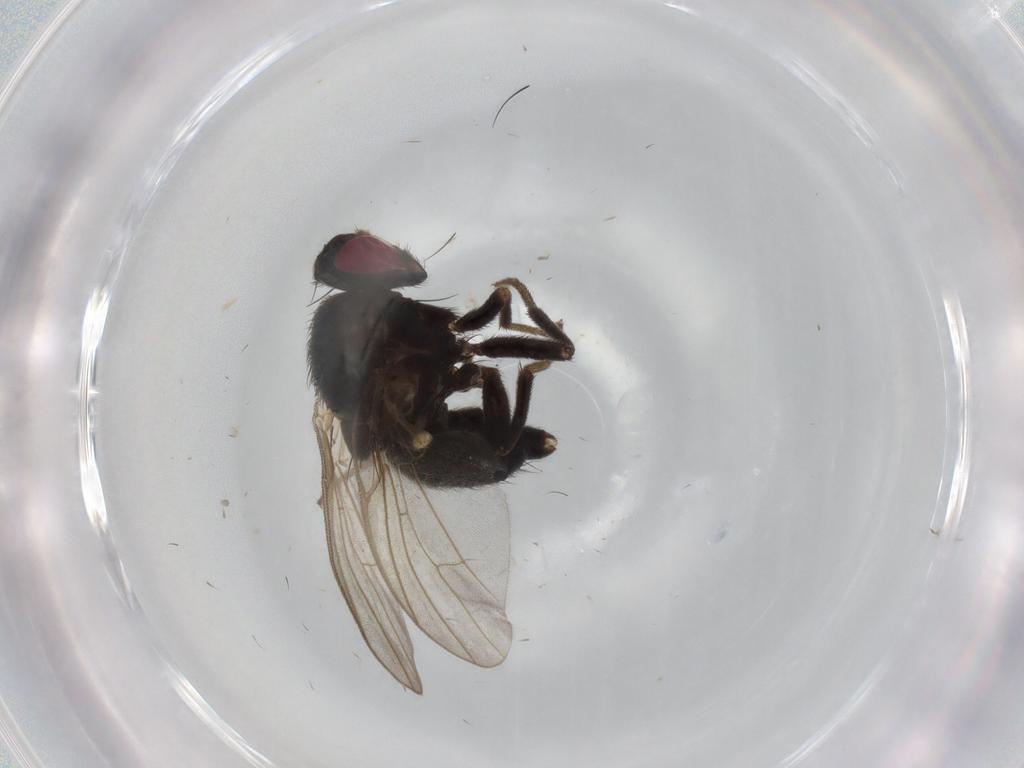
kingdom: Animalia
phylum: Arthropoda
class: Insecta
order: Diptera
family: Agromyzidae
